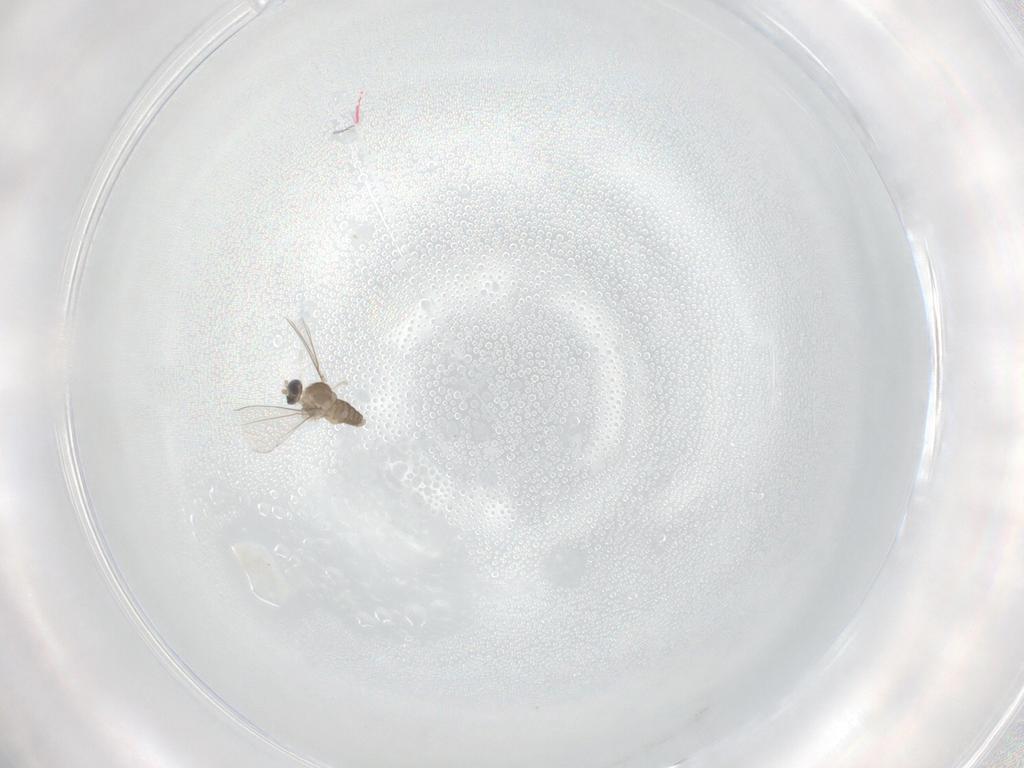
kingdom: Animalia
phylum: Arthropoda
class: Insecta
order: Diptera
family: Cecidomyiidae
